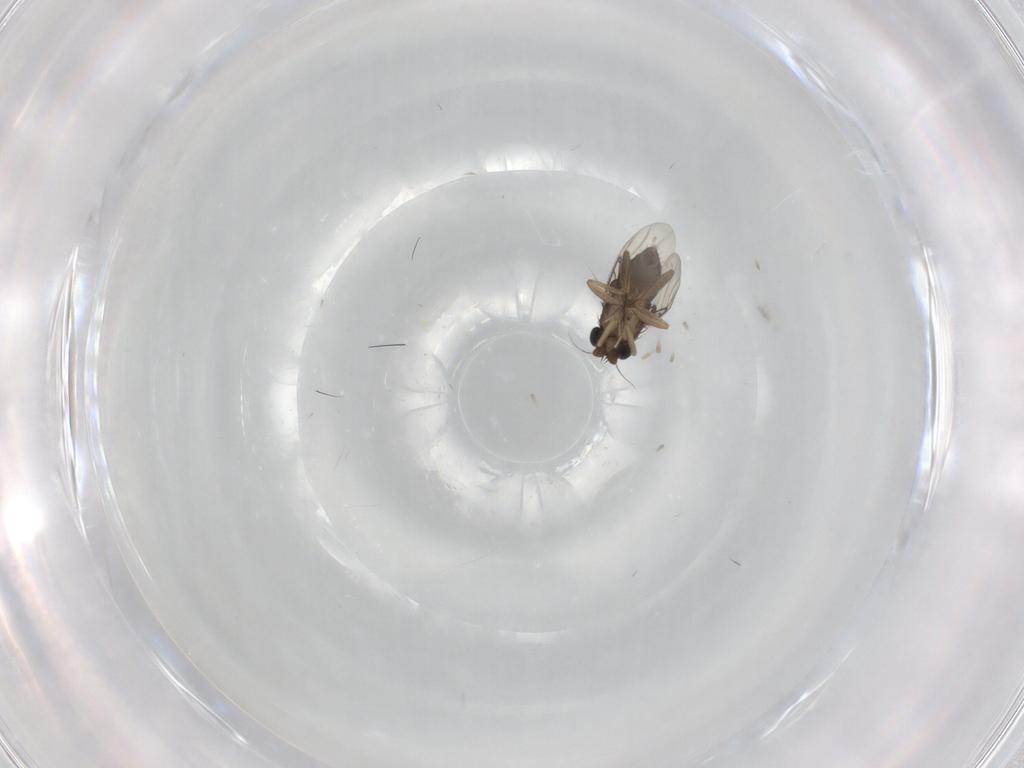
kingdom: Animalia
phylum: Arthropoda
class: Insecta
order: Diptera
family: Phoridae
